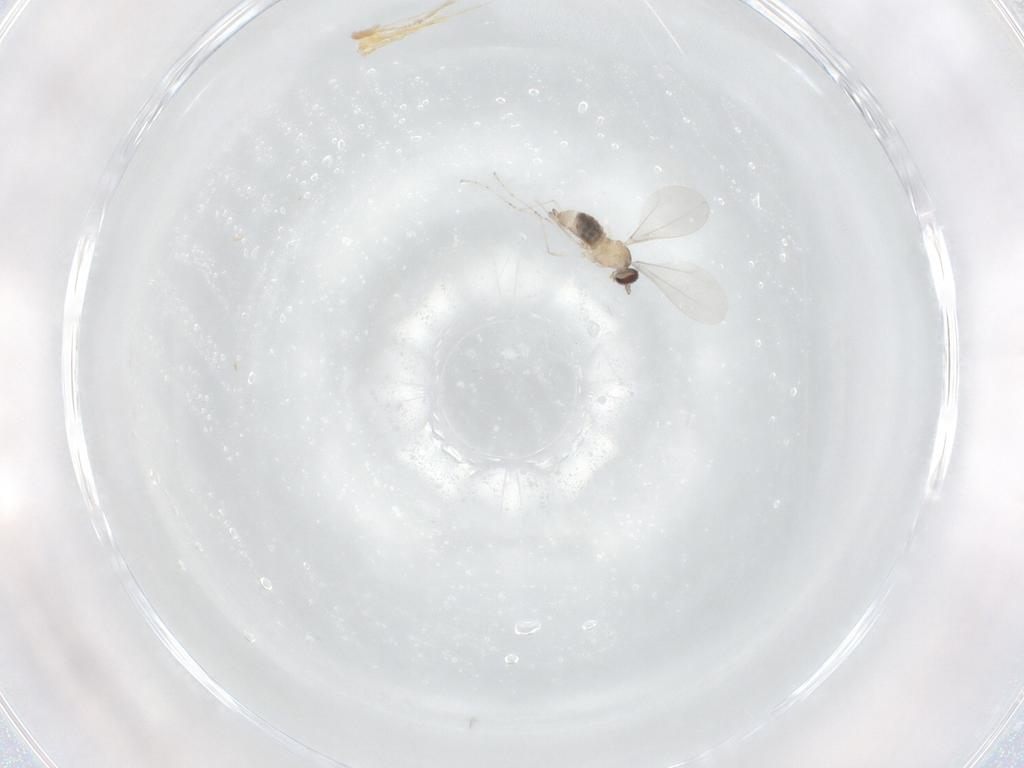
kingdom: Animalia
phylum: Arthropoda
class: Insecta
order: Diptera
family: Cecidomyiidae
